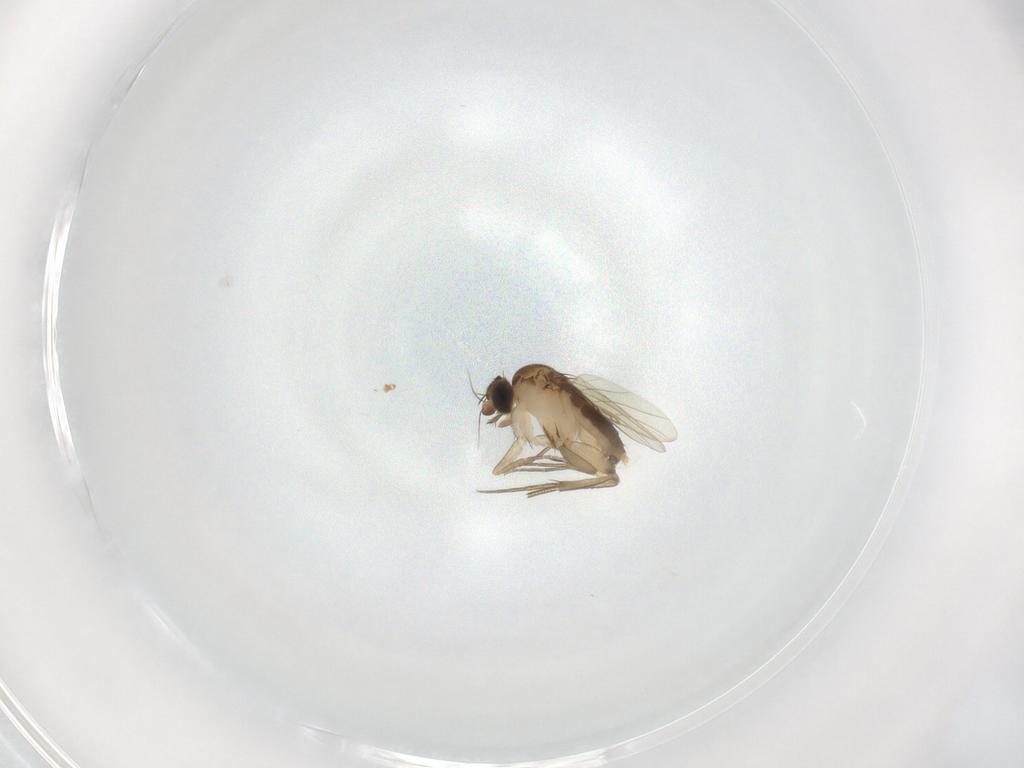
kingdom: Animalia
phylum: Arthropoda
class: Insecta
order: Diptera
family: Phoridae
